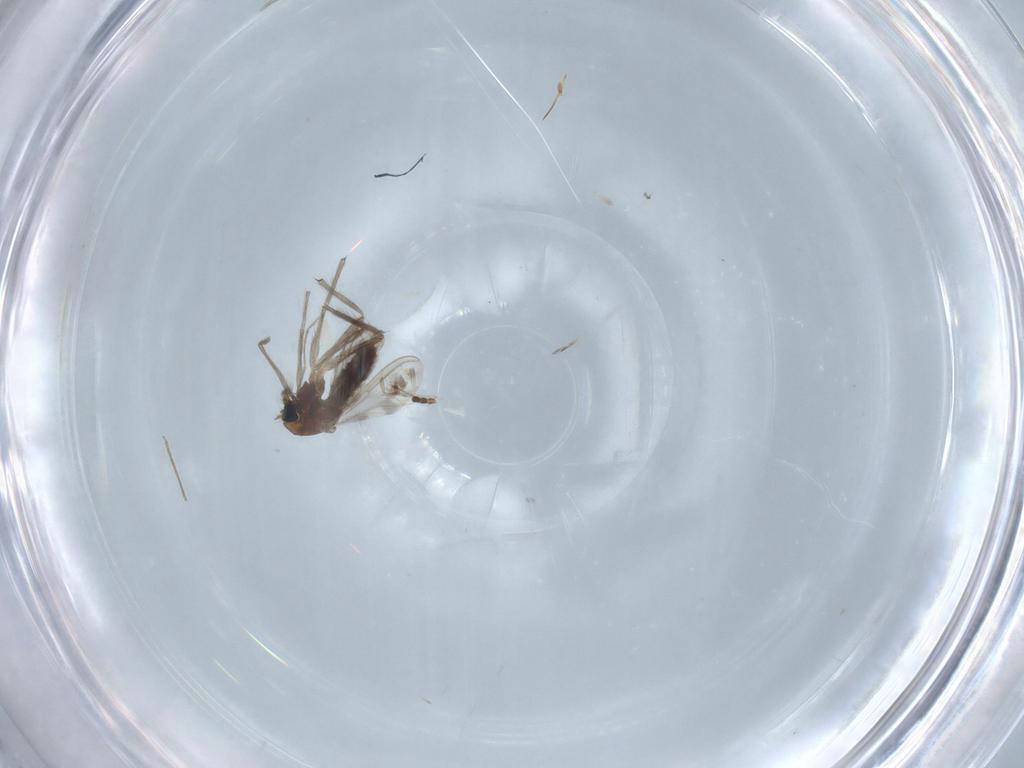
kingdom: Animalia
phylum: Arthropoda
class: Insecta
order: Diptera
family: Chironomidae
